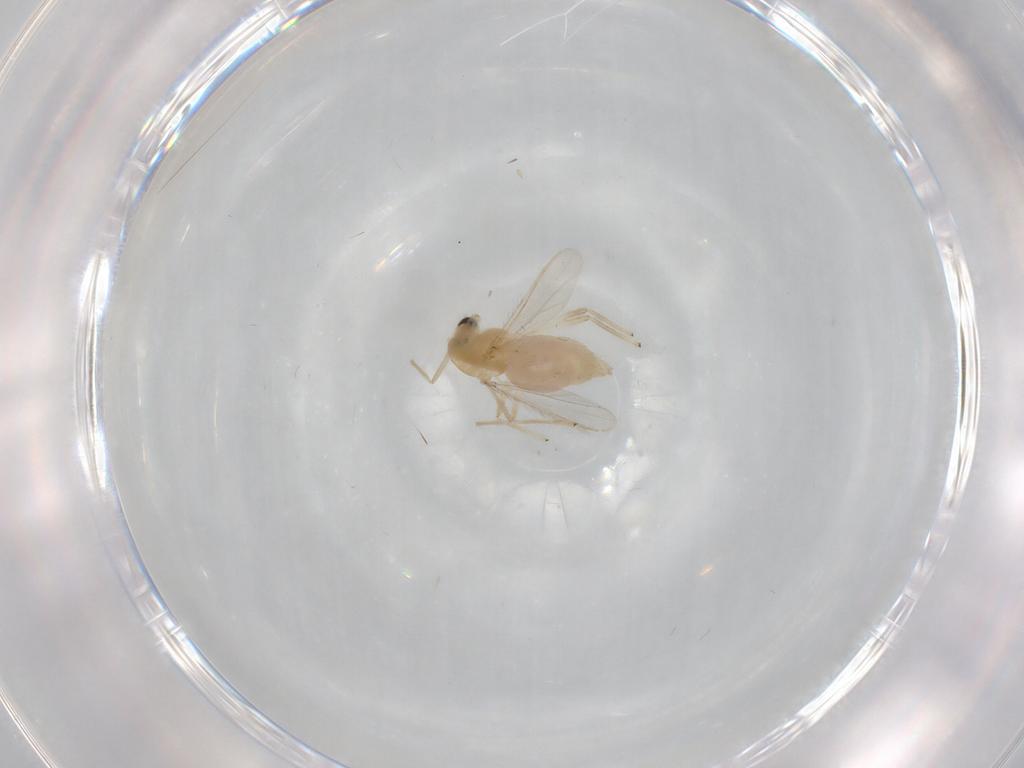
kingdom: Animalia
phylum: Arthropoda
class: Insecta
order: Diptera
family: Chironomidae
